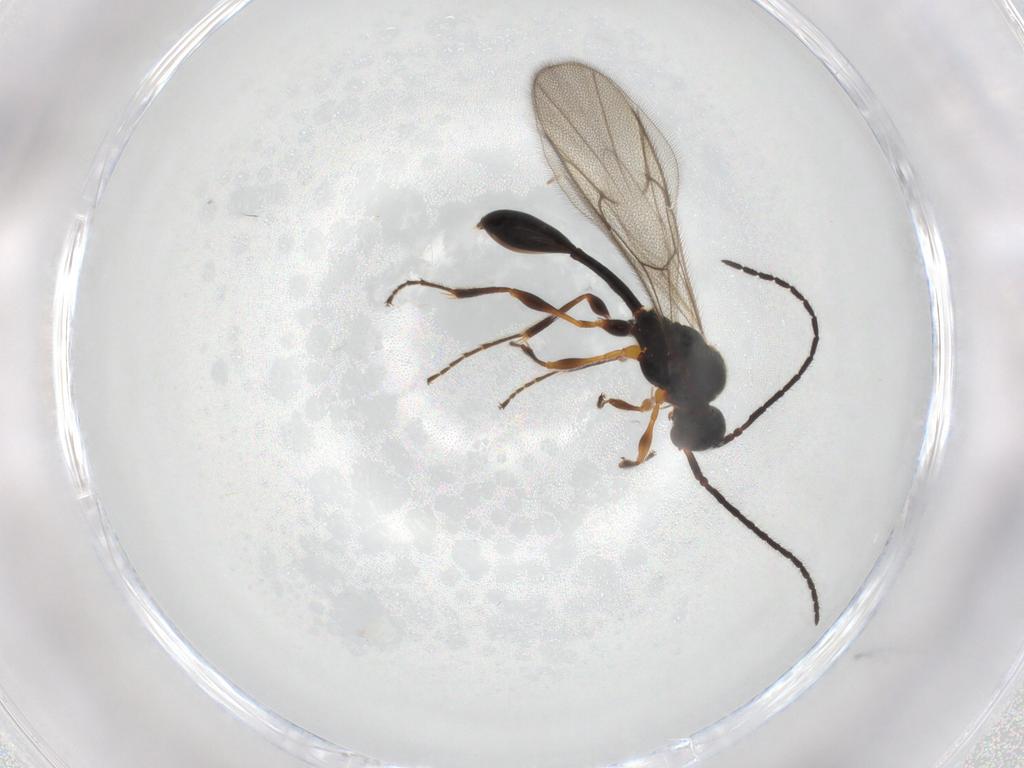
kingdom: Animalia
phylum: Arthropoda
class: Insecta
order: Hymenoptera
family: Diapriidae
